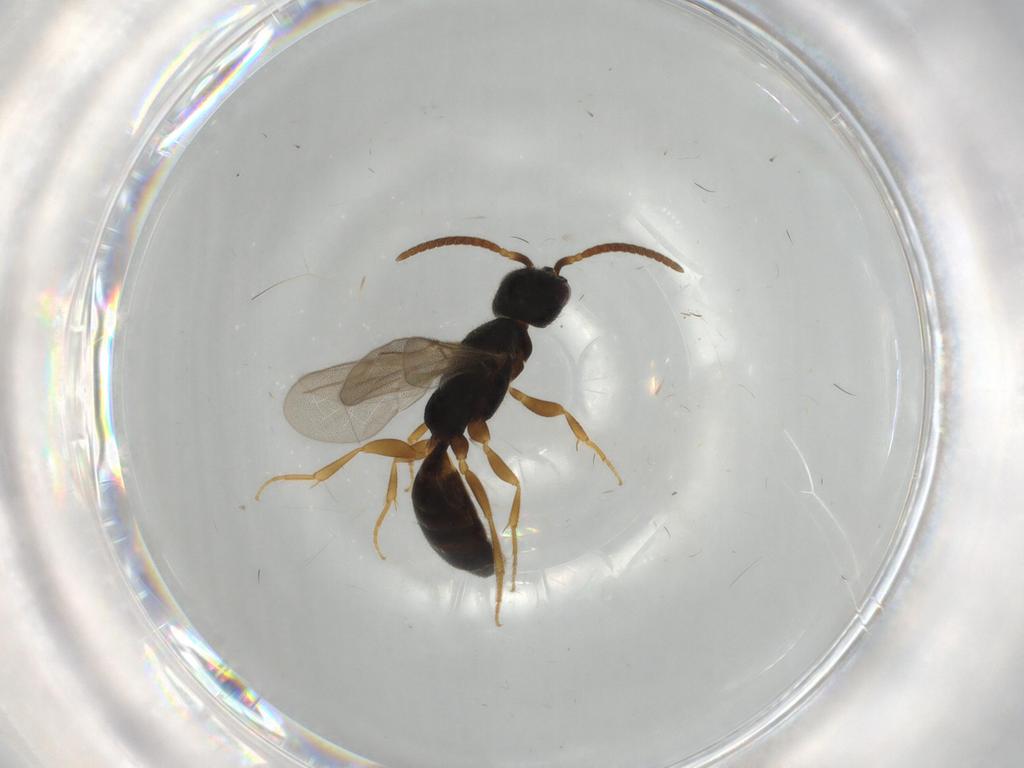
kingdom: Animalia
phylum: Arthropoda
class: Insecta
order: Hymenoptera
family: Bethylidae
